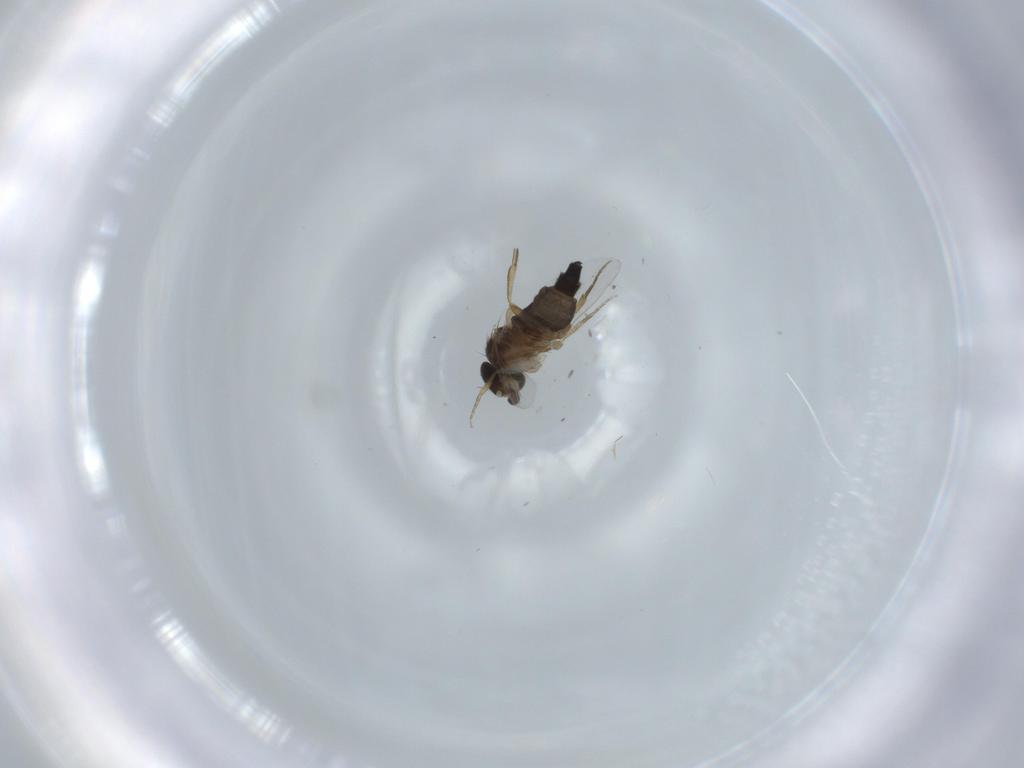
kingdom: Animalia
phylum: Arthropoda
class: Insecta
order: Diptera
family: Phoridae
